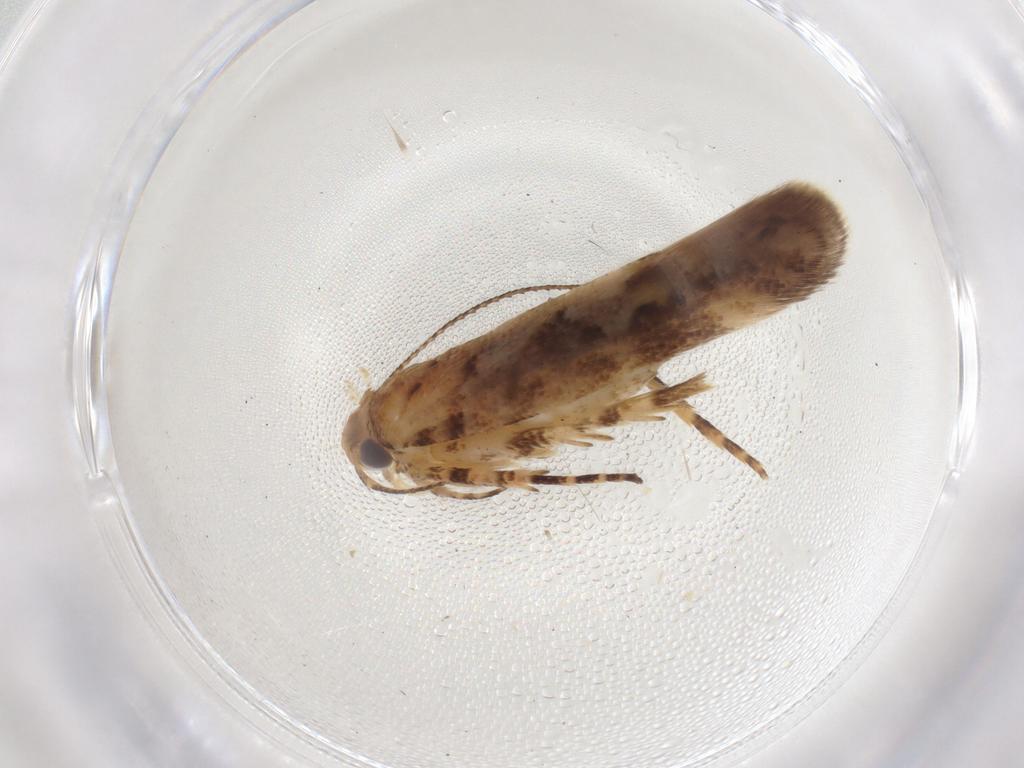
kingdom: Animalia
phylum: Arthropoda
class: Insecta
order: Lepidoptera
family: Gelechiidae
